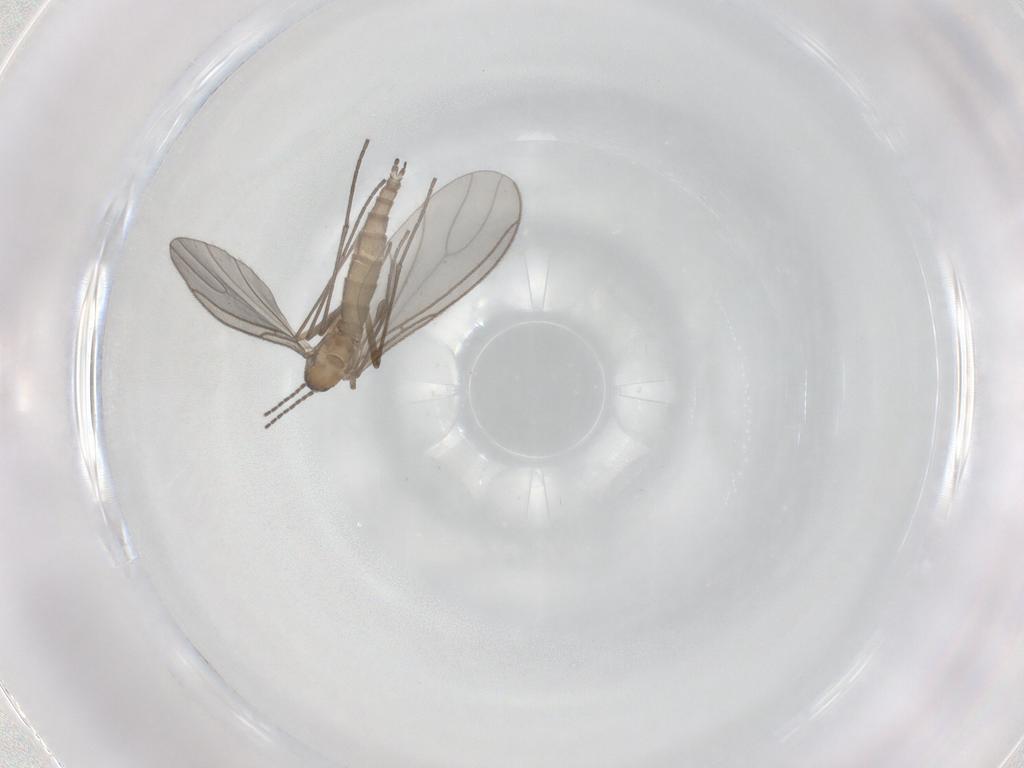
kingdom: Animalia
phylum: Arthropoda
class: Insecta
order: Diptera
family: Sciaridae
